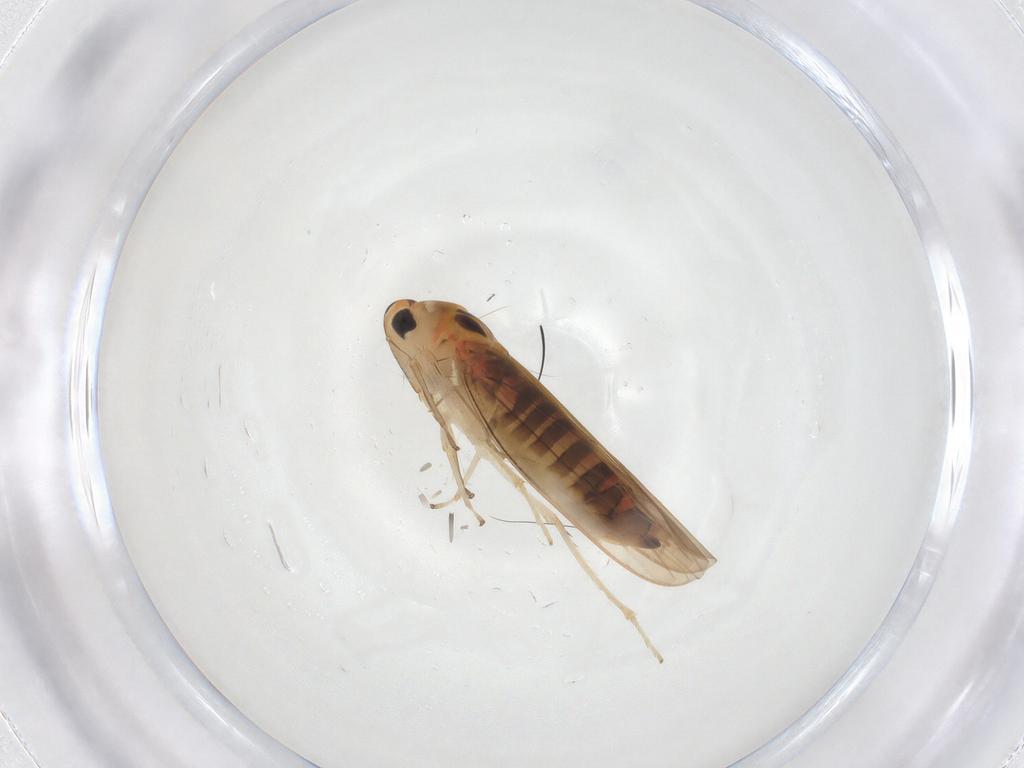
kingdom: Animalia
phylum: Arthropoda
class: Insecta
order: Hemiptera
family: Cicadellidae
